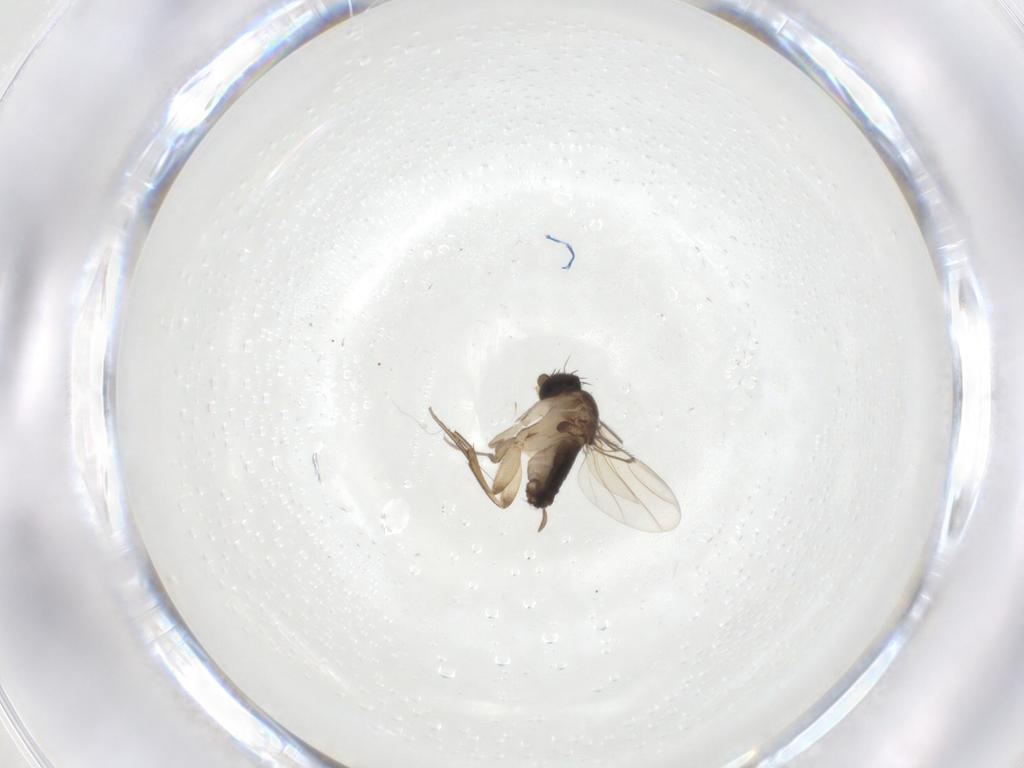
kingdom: Animalia
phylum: Arthropoda
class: Insecta
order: Diptera
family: Phoridae
